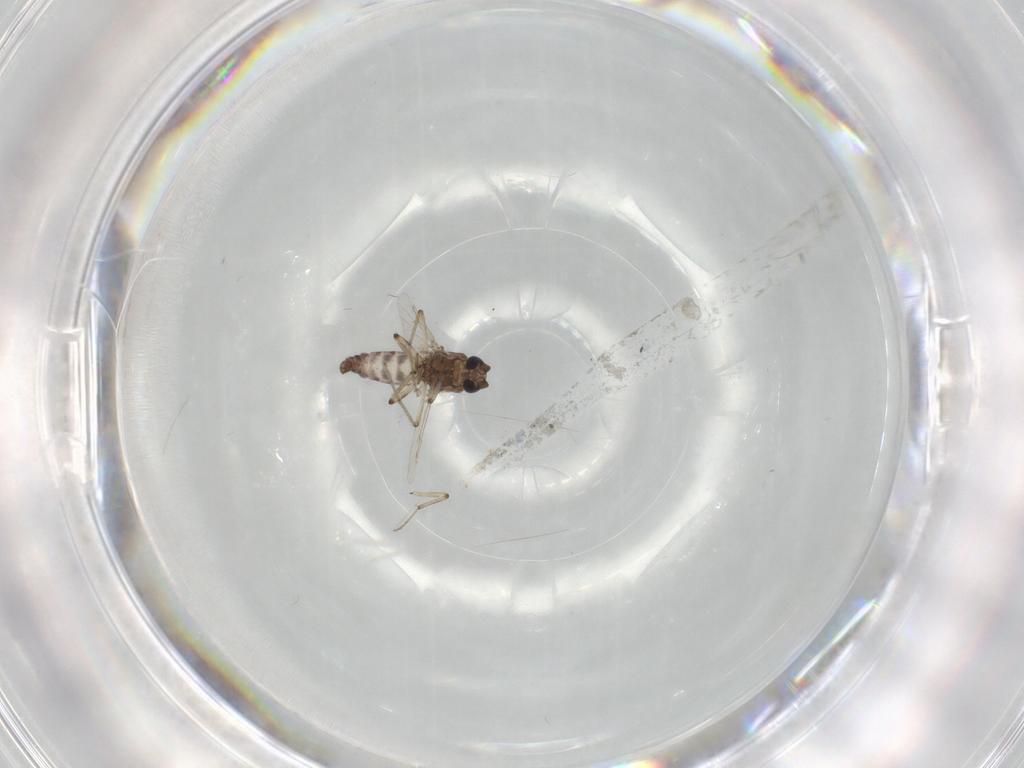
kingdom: Animalia
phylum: Arthropoda
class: Insecta
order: Diptera
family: Ceratopogonidae
